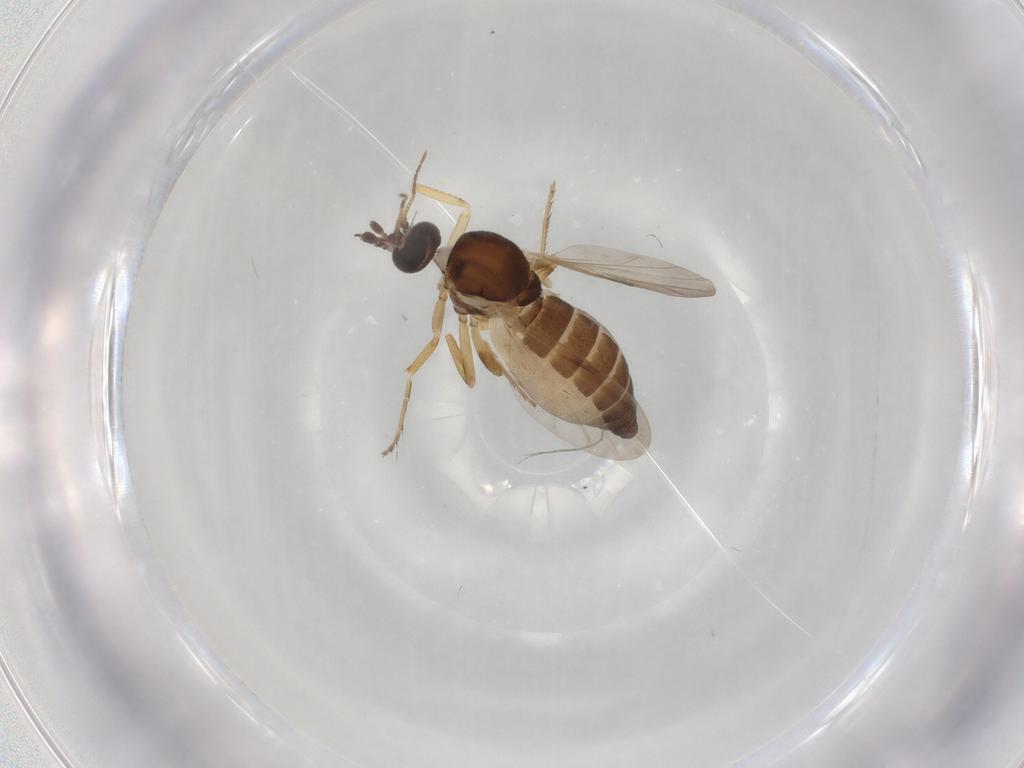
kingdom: Animalia
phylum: Arthropoda
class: Insecta
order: Diptera
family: Ceratopogonidae
